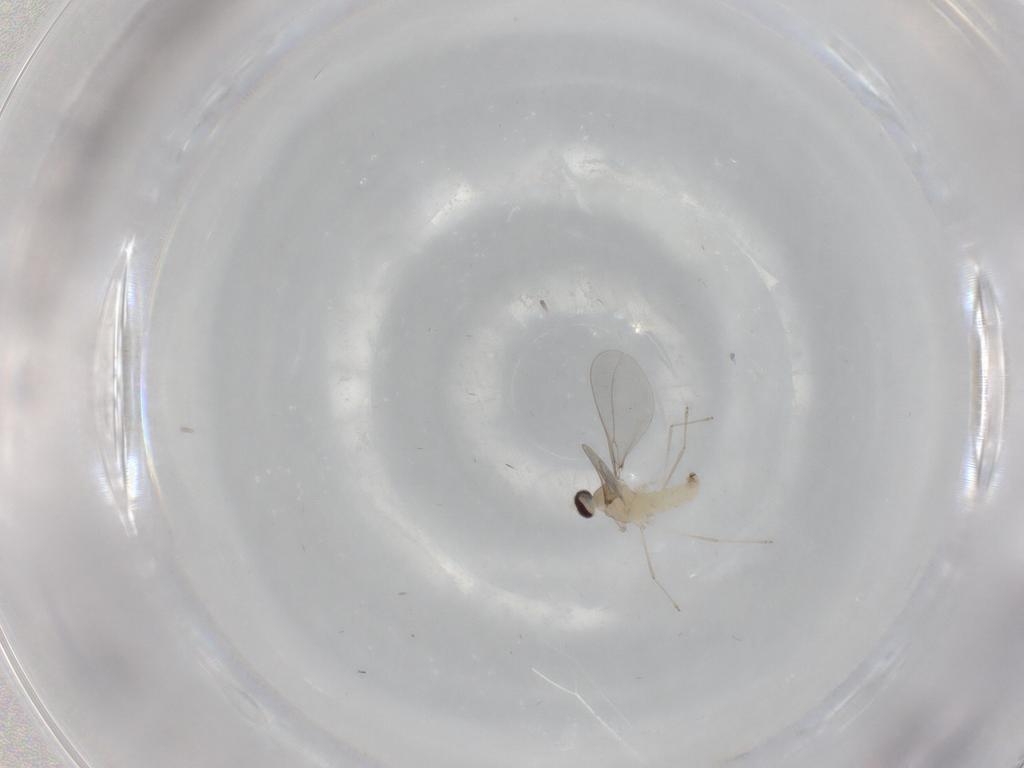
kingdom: Animalia
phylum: Arthropoda
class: Insecta
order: Diptera
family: Cecidomyiidae
